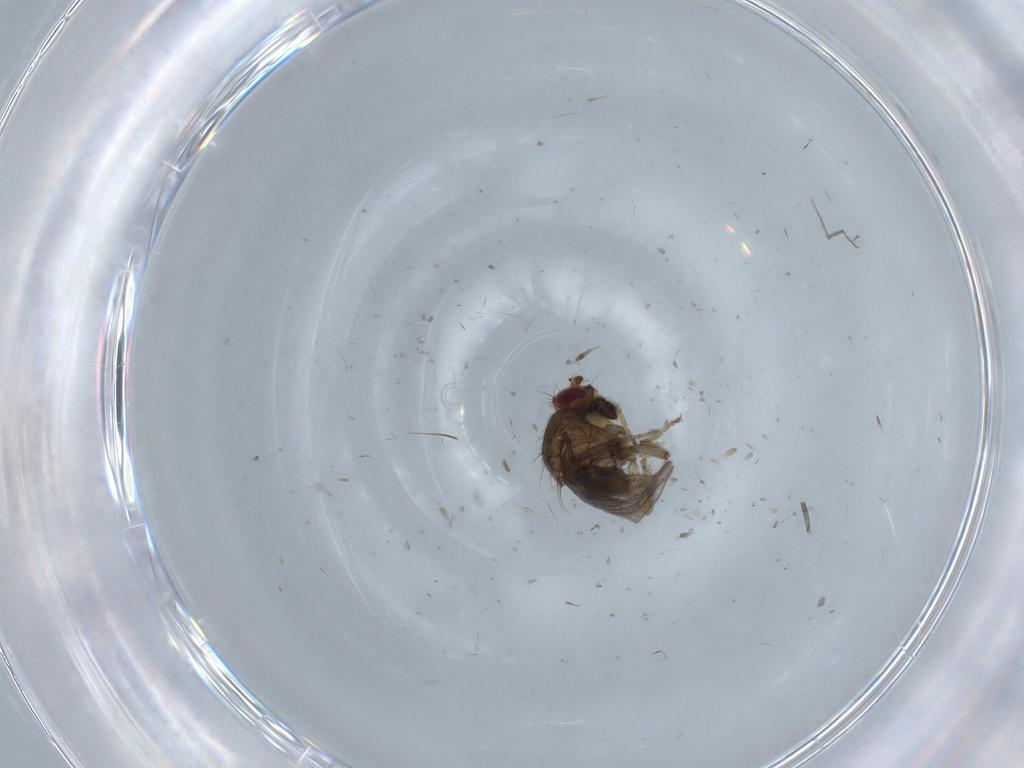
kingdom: Animalia
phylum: Arthropoda
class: Insecta
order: Diptera
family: Sphaeroceridae
